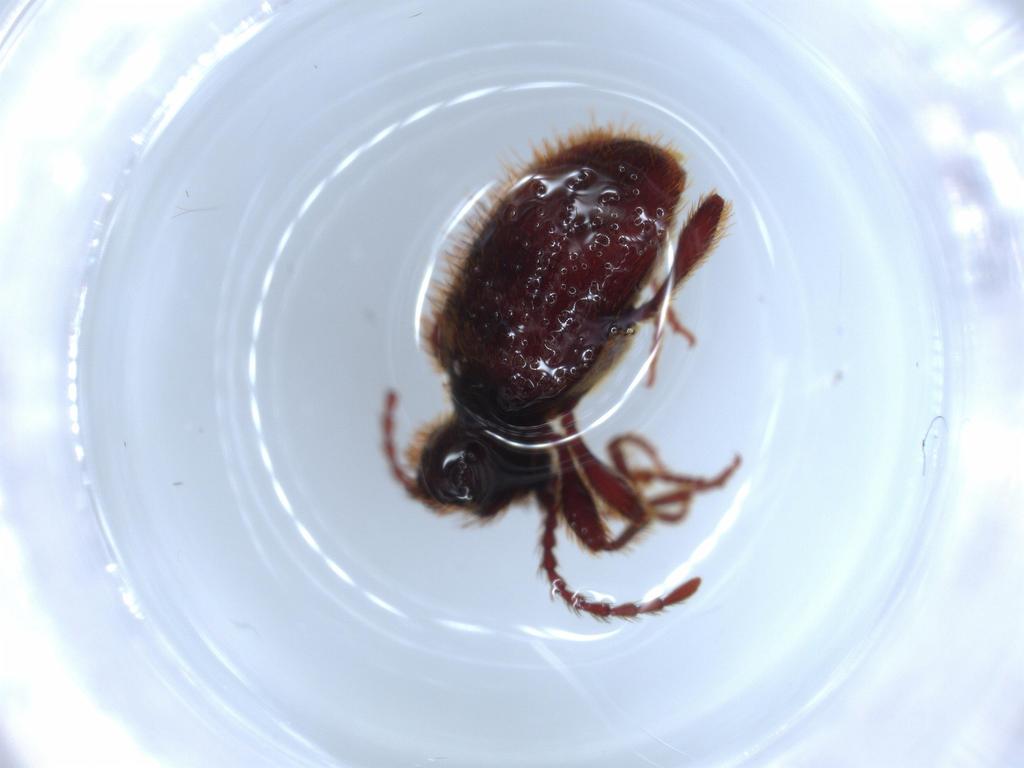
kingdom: Animalia
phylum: Arthropoda
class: Insecta
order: Coleoptera
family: Ptinidae
